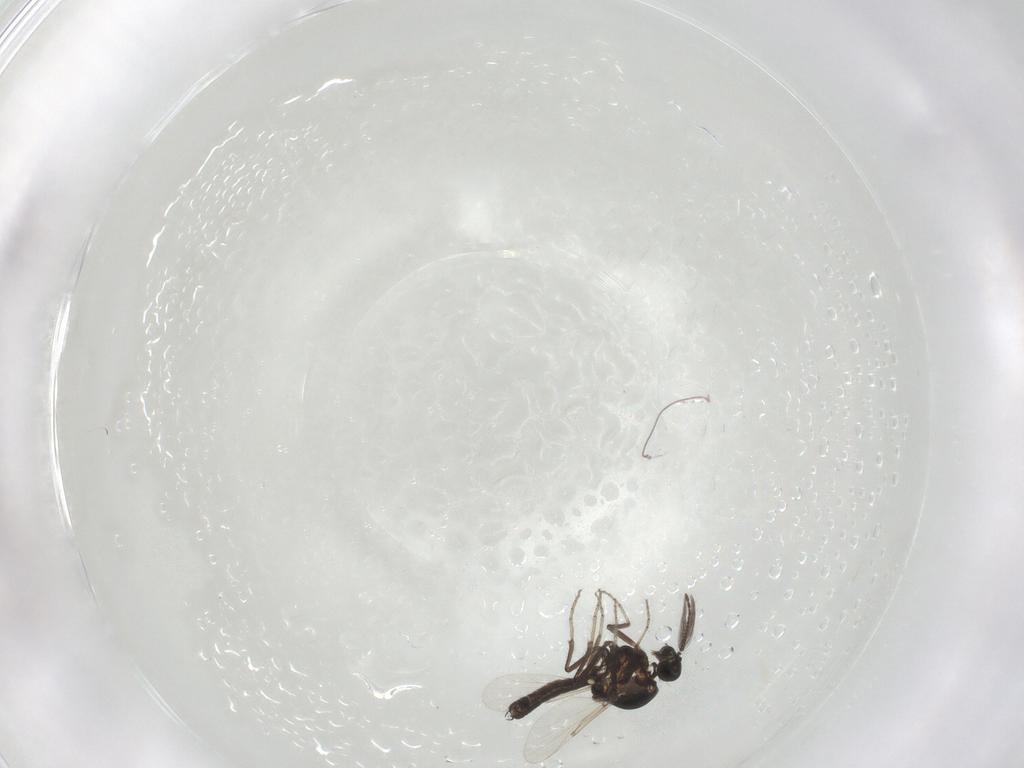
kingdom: Animalia
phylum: Arthropoda
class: Insecta
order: Diptera
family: Ceratopogonidae
